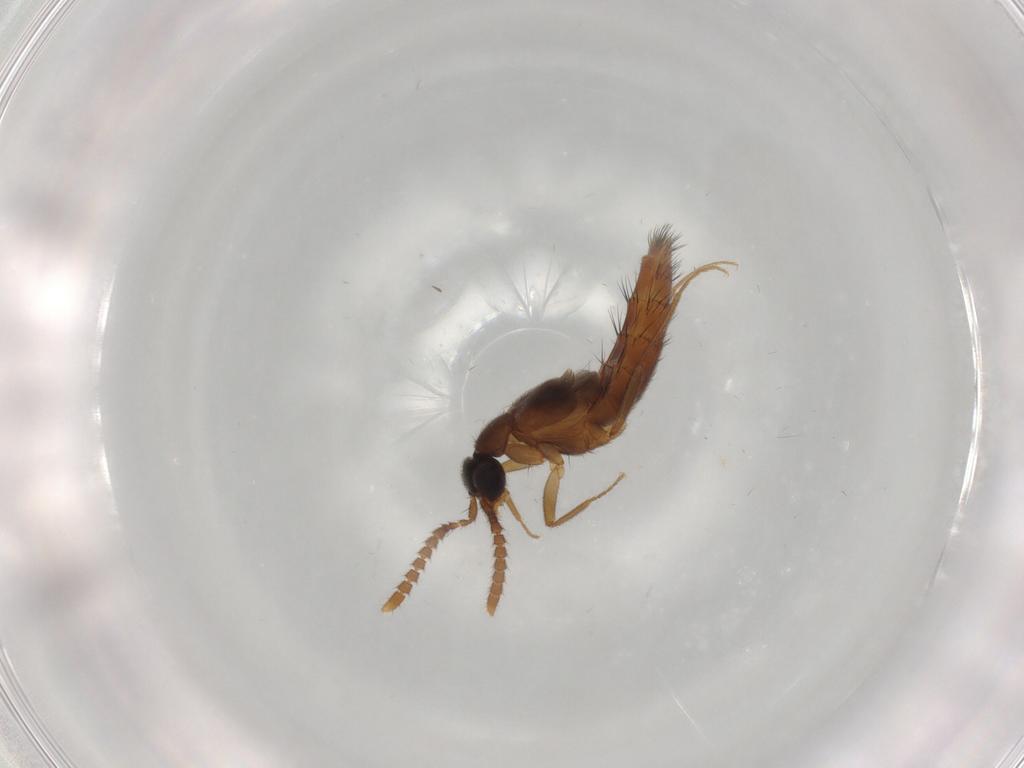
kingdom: Animalia
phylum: Arthropoda
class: Insecta
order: Coleoptera
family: Staphylinidae
